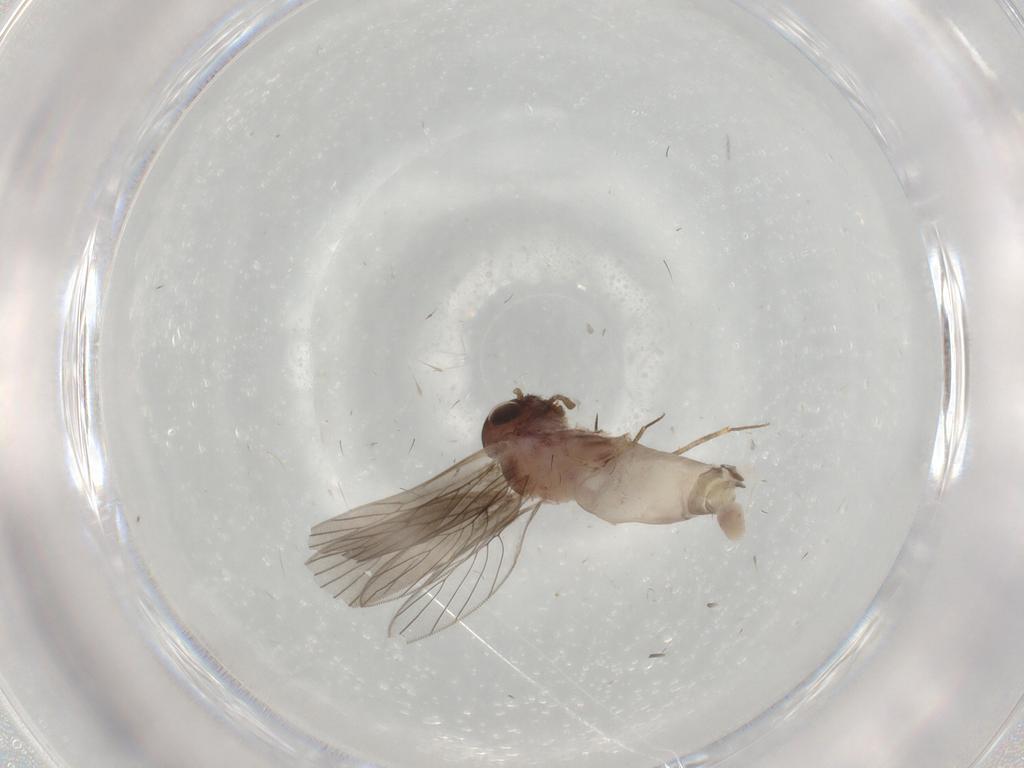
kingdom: Animalia
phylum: Arthropoda
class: Insecta
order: Psocodea
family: Lepidopsocidae
